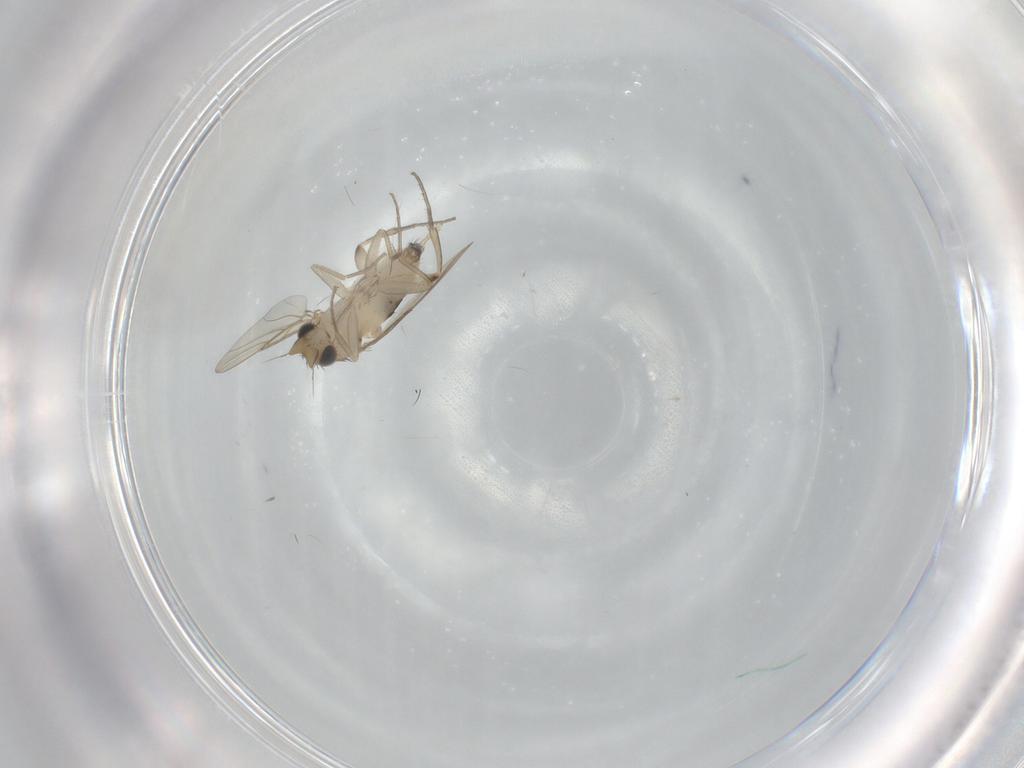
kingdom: Animalia
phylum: Arthropoda
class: Insecta
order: Diptera
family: Phoridae
